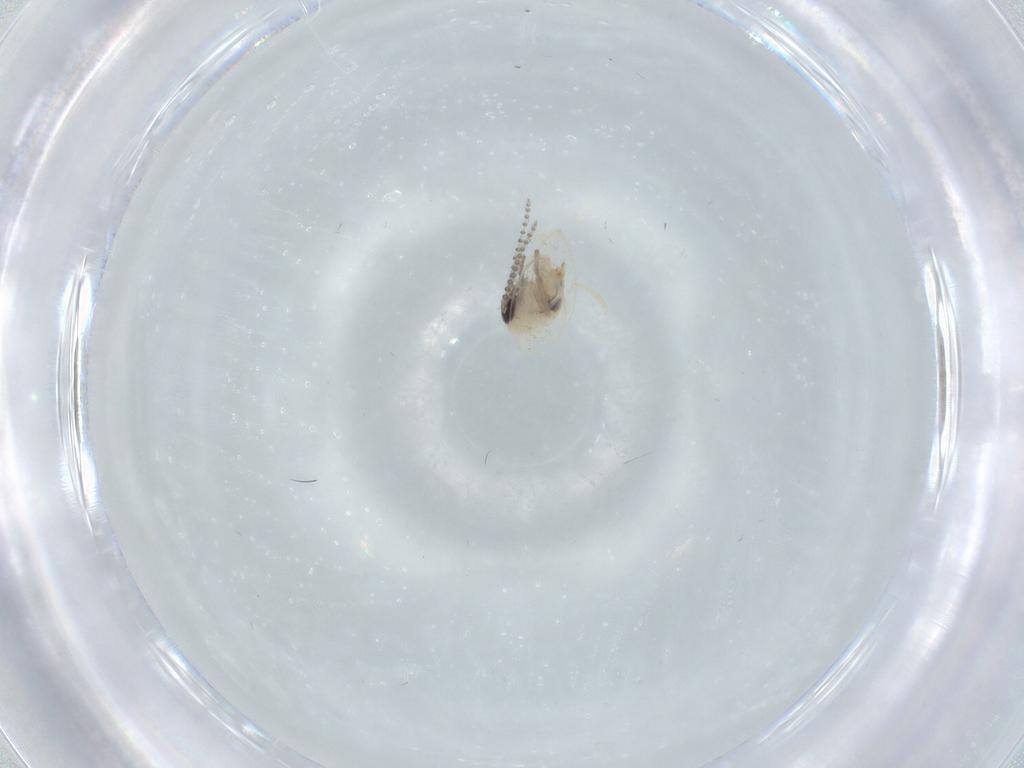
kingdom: Animalia
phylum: Arthropoda
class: Insecta
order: Diptera
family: Psychodidae
